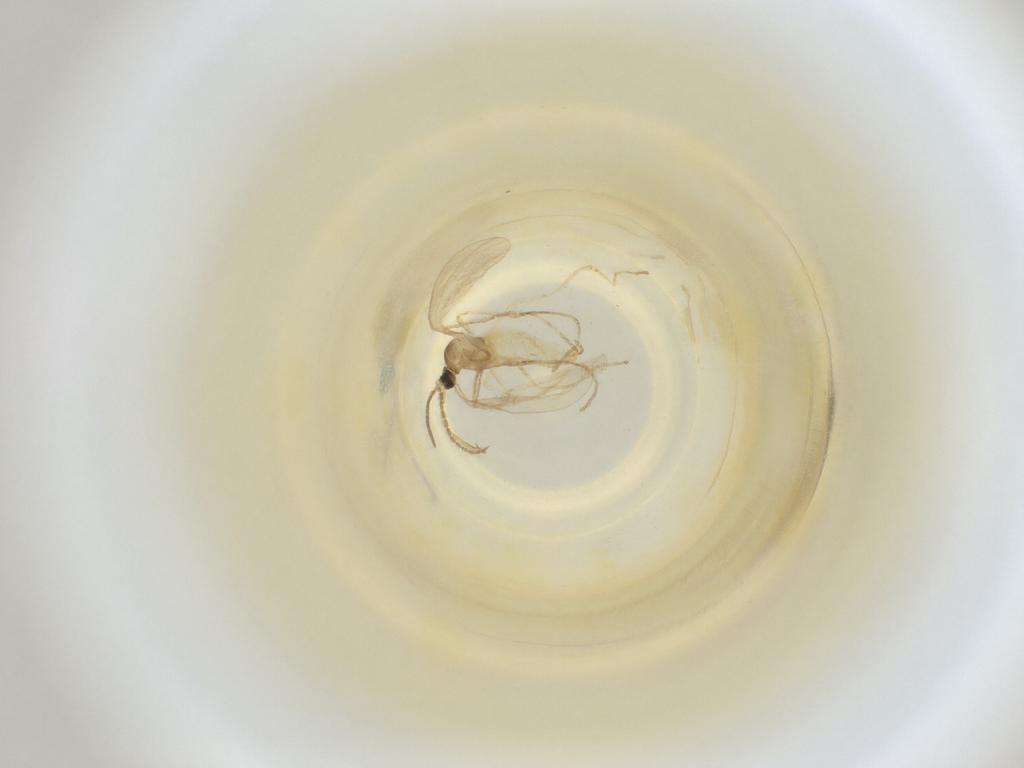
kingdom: Animalia
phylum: Arthropoda
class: Insecta
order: Diptera
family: Cecidomyiidae
